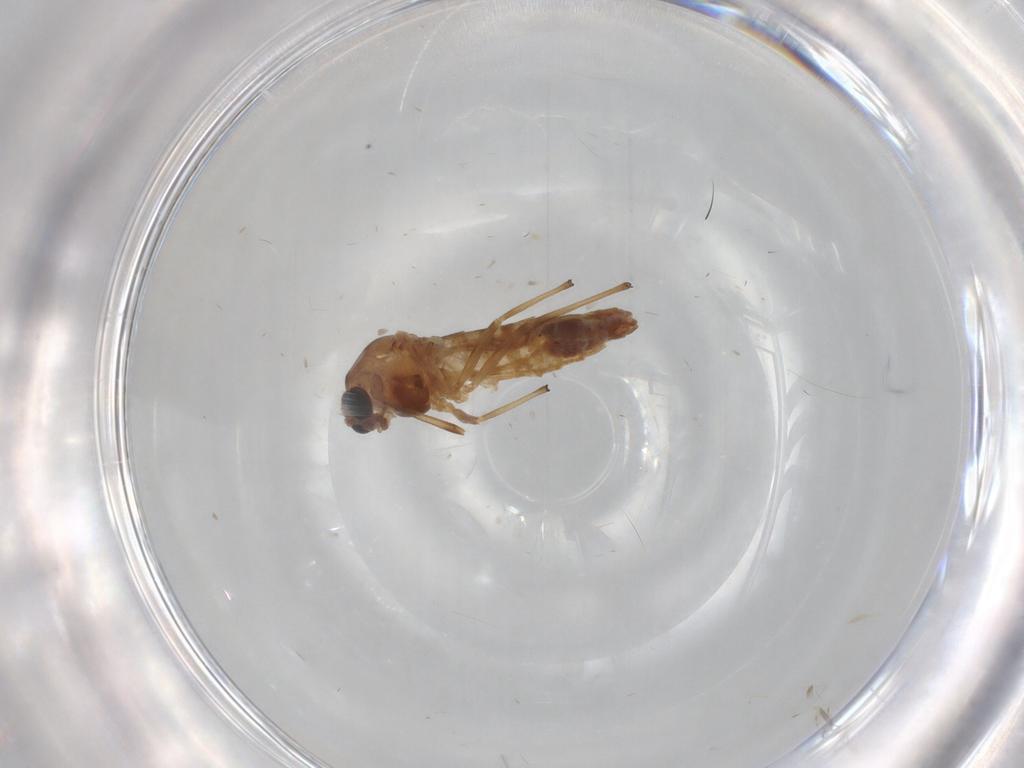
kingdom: Animalia
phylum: Arthropoda
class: Insecta
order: Diptera
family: Chironomidae
